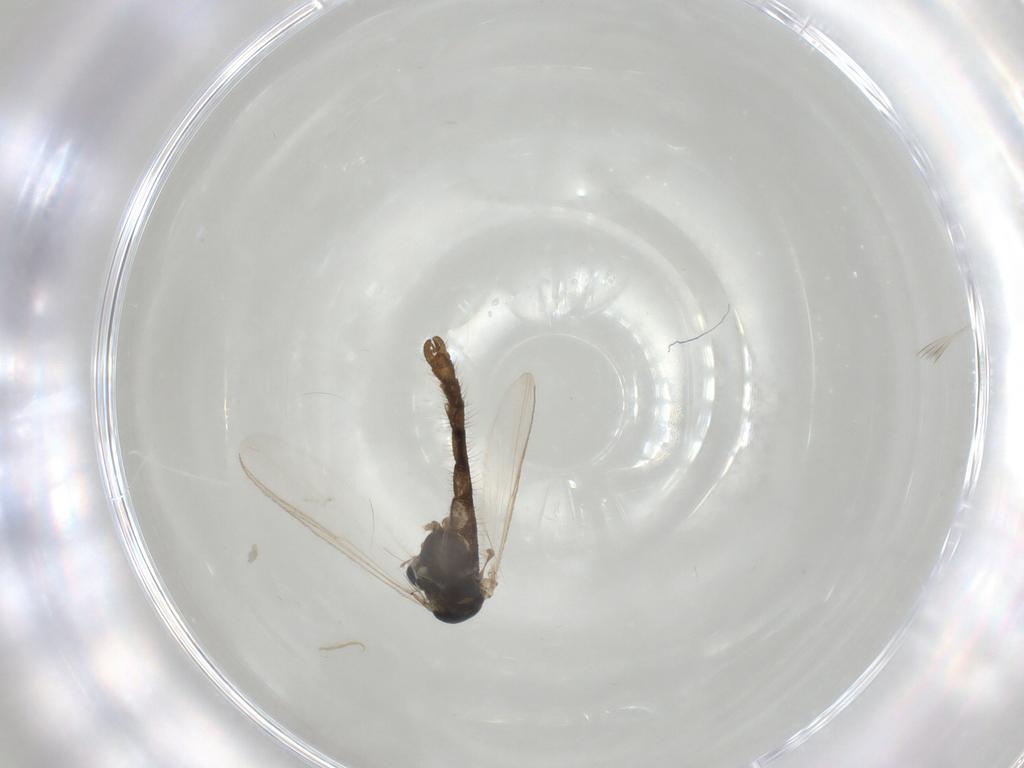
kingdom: Animalia
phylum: Arthropoda
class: Insecta
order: Diptera
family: Chironomidae
